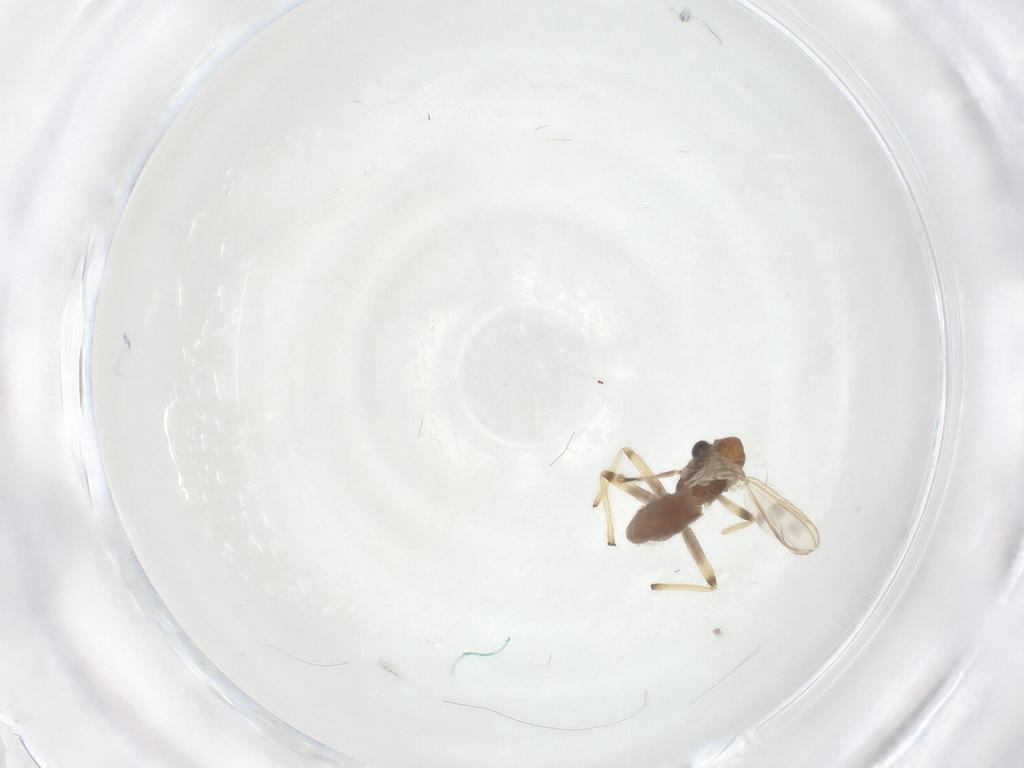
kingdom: Animalia
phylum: Arthropoda
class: Insecta
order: Diptera
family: Chironomidae
